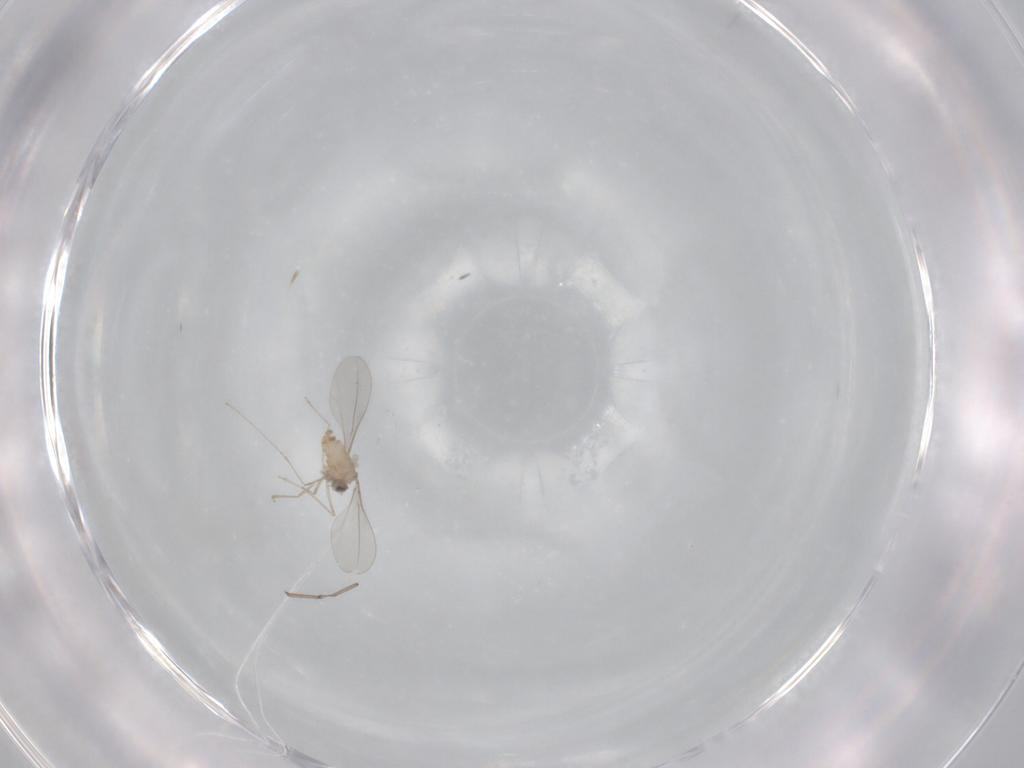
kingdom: Animalia
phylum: Arthropoda
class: Insecta
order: Diptera
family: Cecidomyiidae
